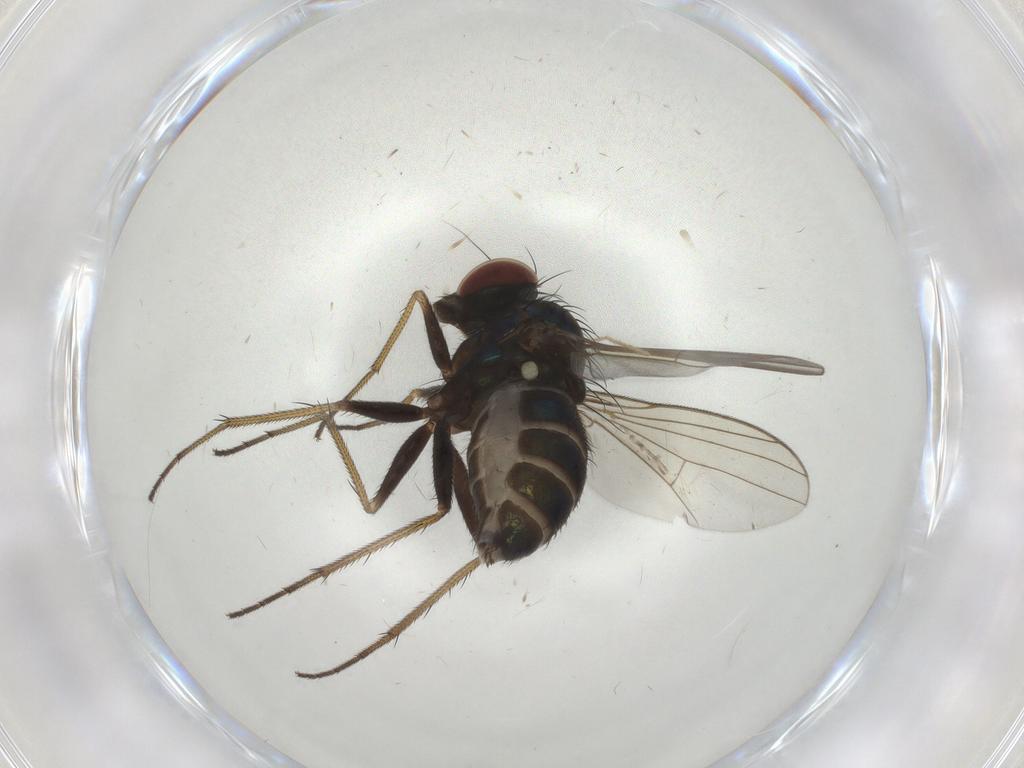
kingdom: Animalia
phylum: Arthropoda
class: Insecta
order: Diptera
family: Dolichopodidae
